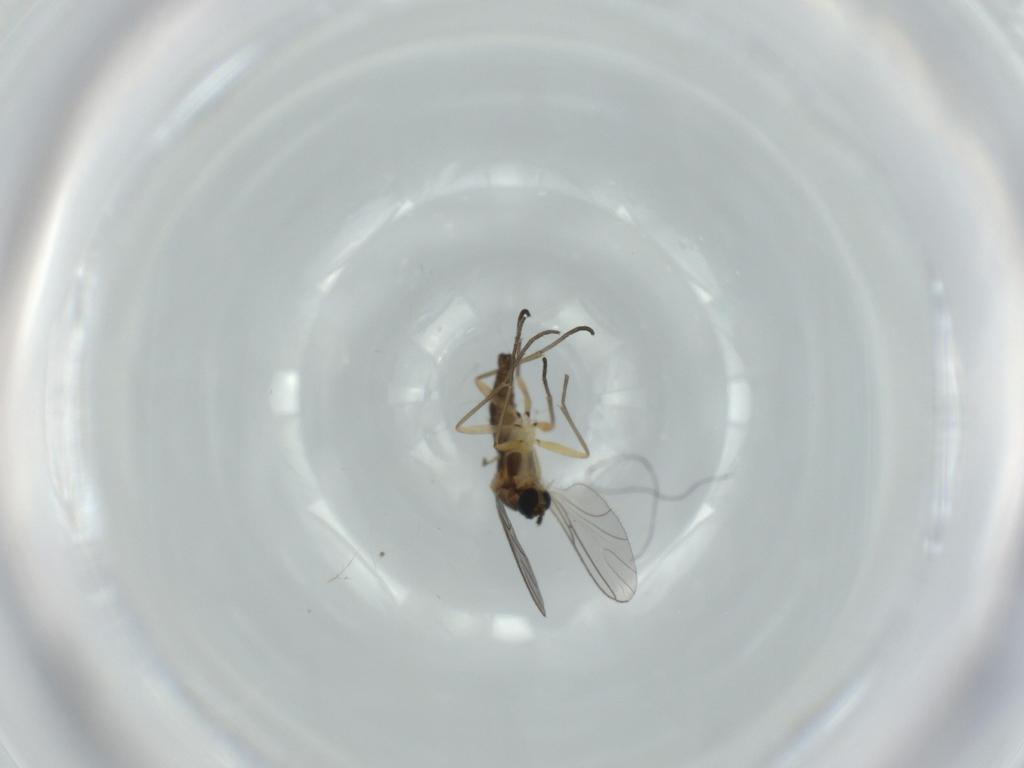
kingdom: Animalia
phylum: Arthropoda
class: Insecta
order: Diptera
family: Sciaridae
